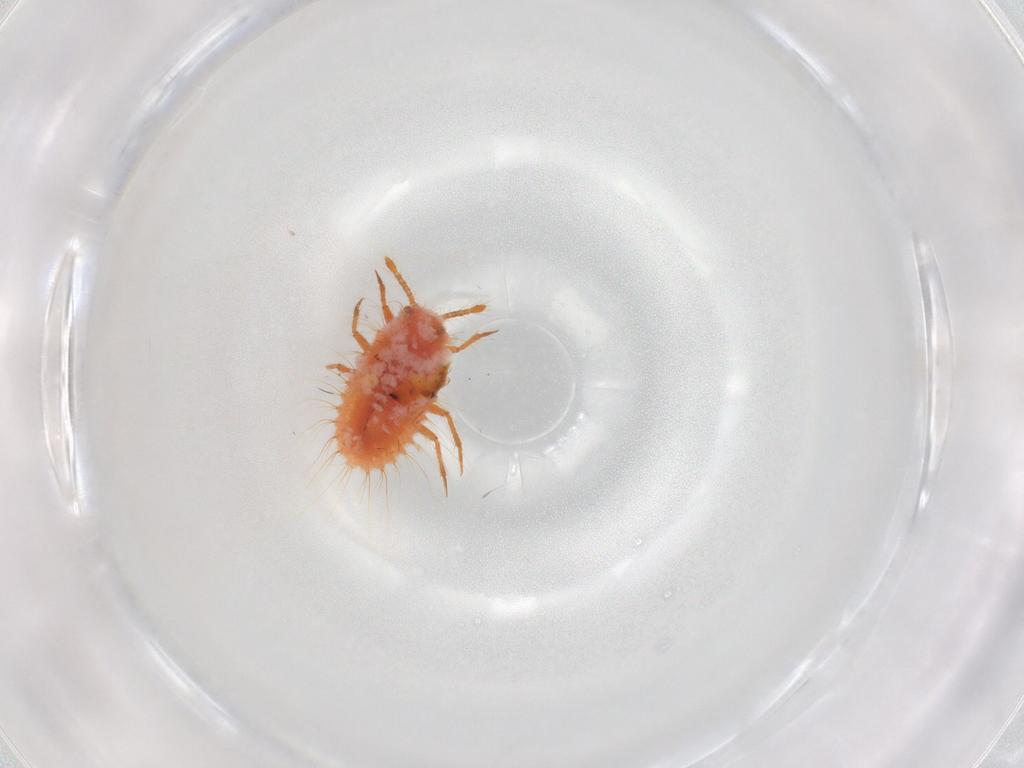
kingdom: Animalia
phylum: Arthropoda
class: Insecta
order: Hemiptera
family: Coccoidea_incertae_sedis
